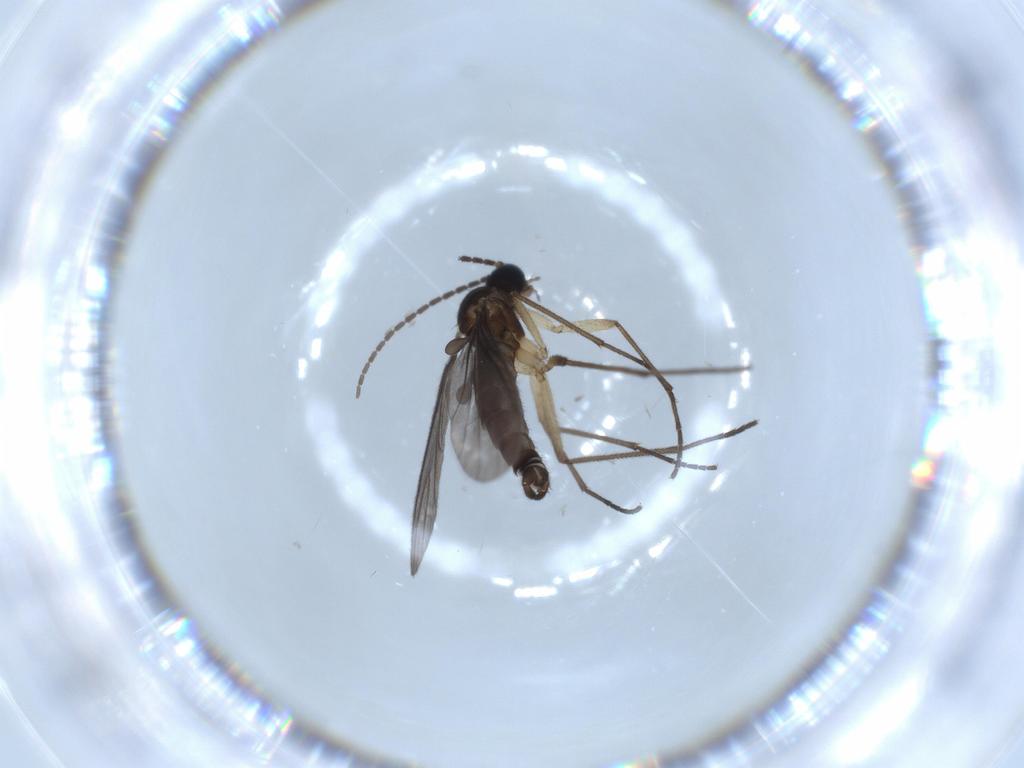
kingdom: Animalia
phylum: Arthropoda
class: Insecta
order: Diptera
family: Sciaridae
